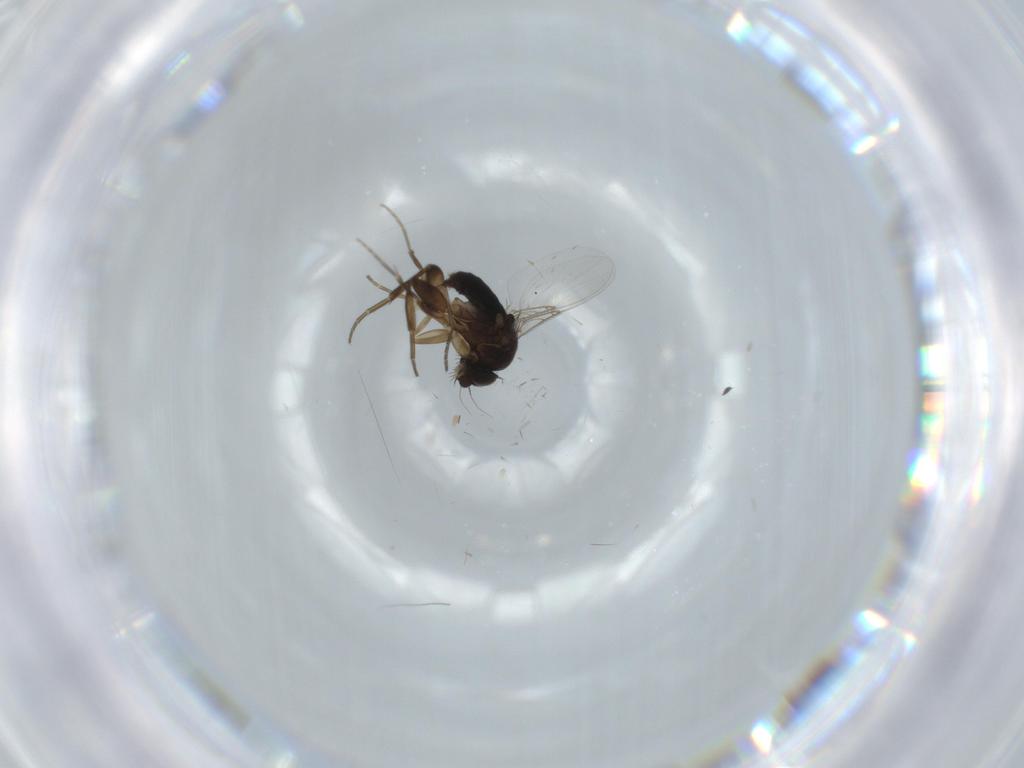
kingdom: Animalia
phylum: Arthropoda
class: Insecta
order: Diptera
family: Phoridae
